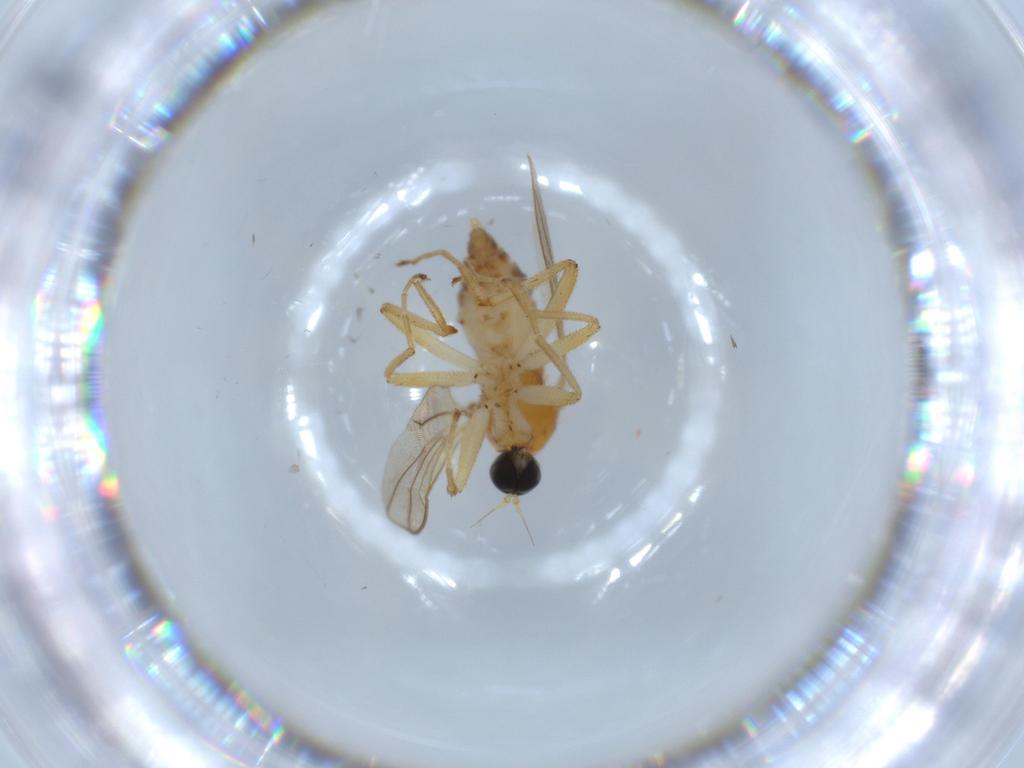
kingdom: Animalia
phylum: Arthropoda
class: Insecta
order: Diptera
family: Hybotidae
